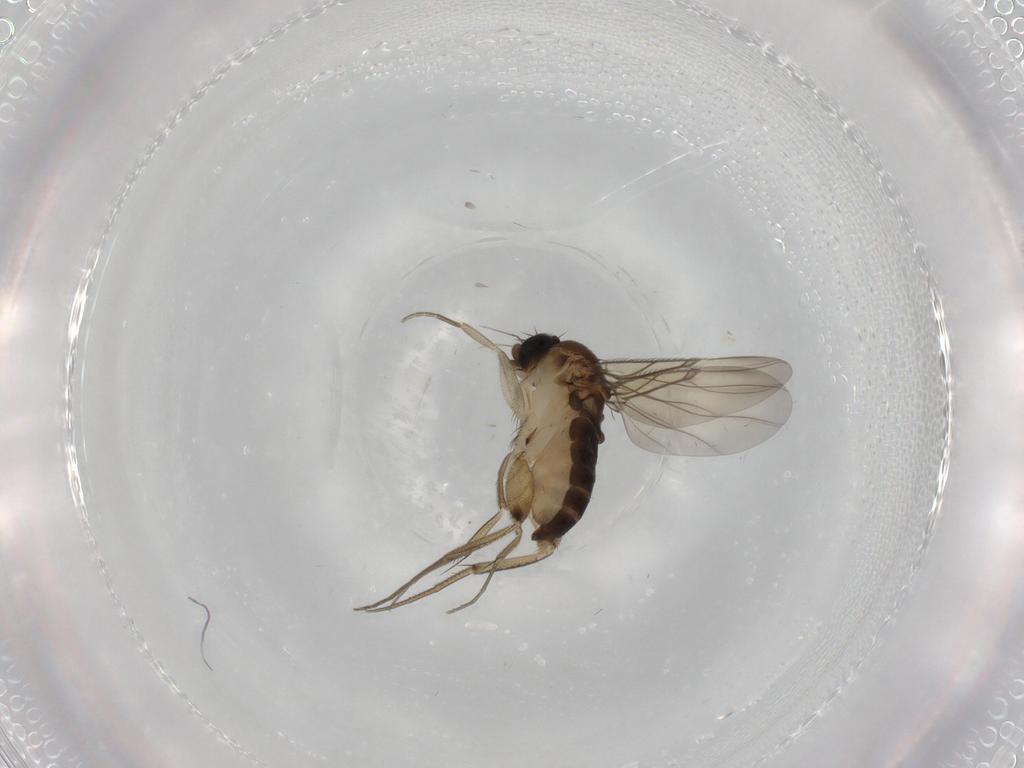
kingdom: Animalia
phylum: Arthropoda
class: Insecta
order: Diptera
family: Phoridae
